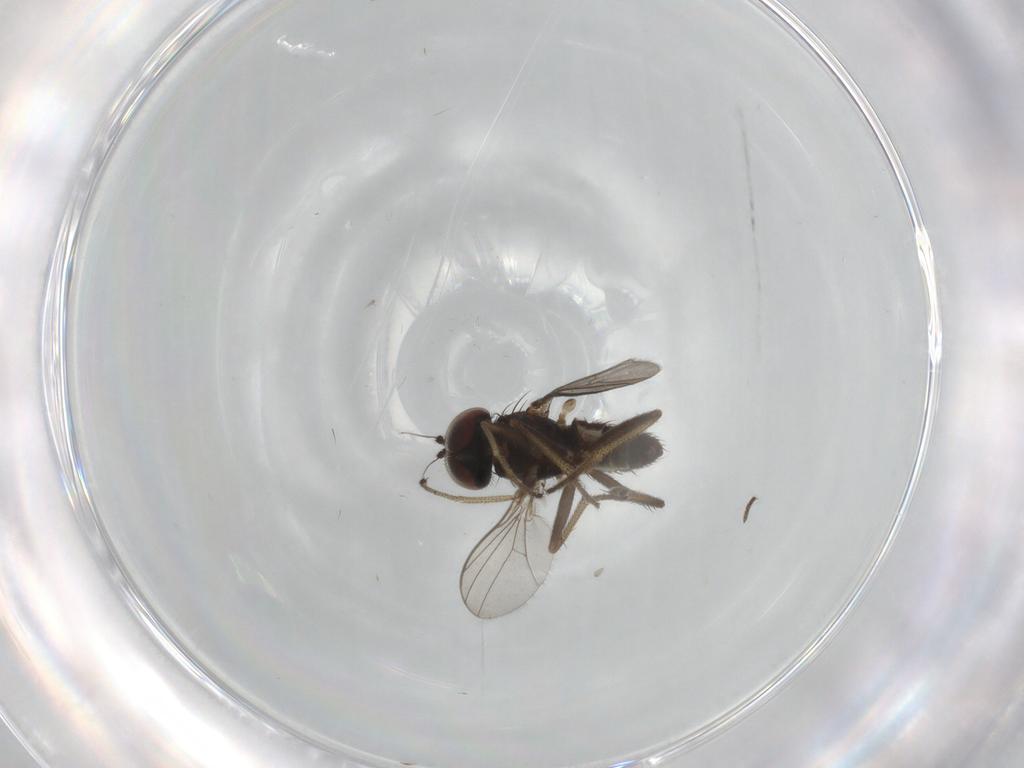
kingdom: Animalia
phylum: Arthropoda
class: Insecta
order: Diptera
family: Dolichopodidae
